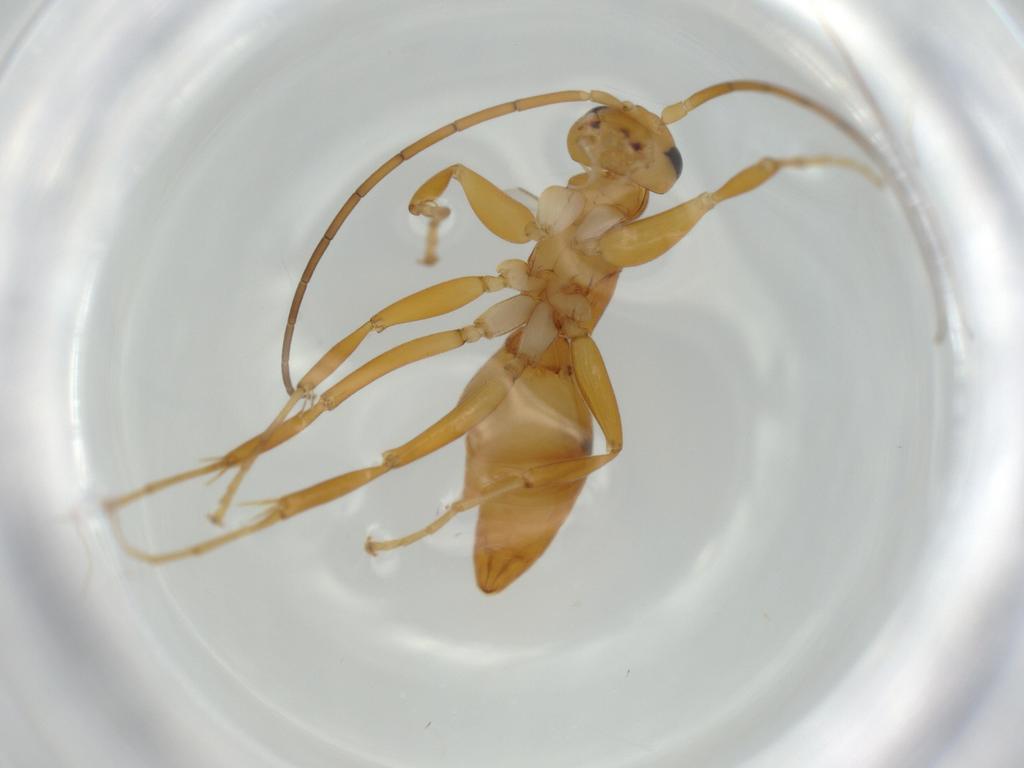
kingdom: Animalia
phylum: Arthropoda
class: Insecta
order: Hymenoptera
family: Rhopalosomatidae
